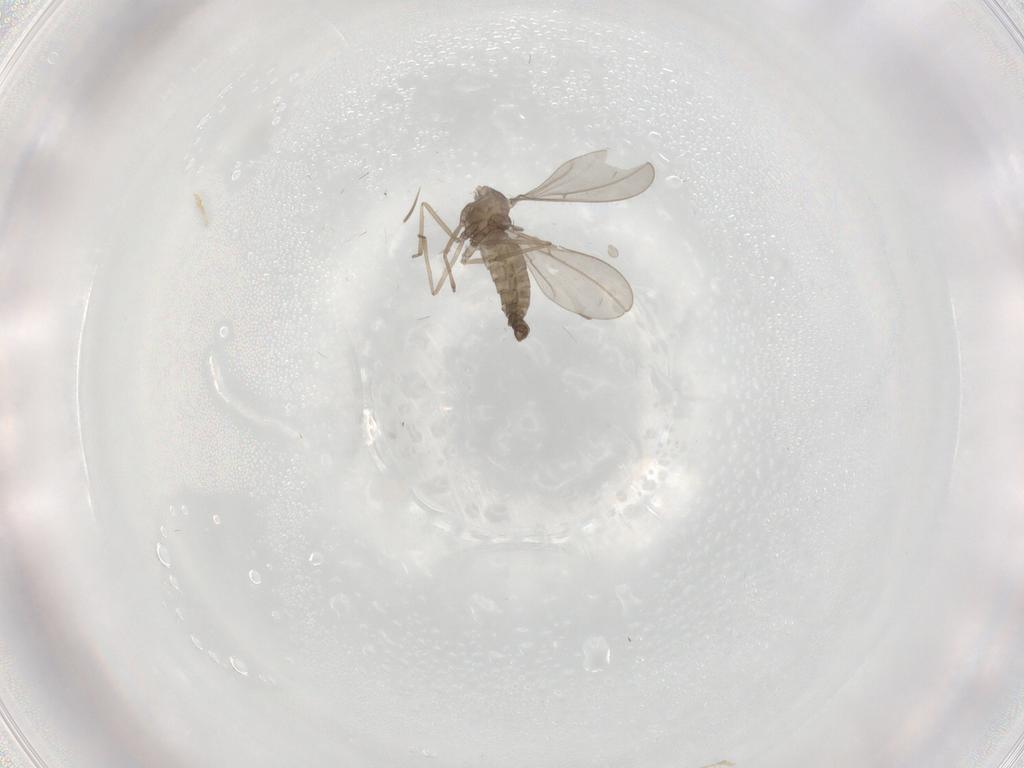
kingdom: Animalia
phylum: Arthropoda
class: Insecta
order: Diptera
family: Cecidomyiidae
